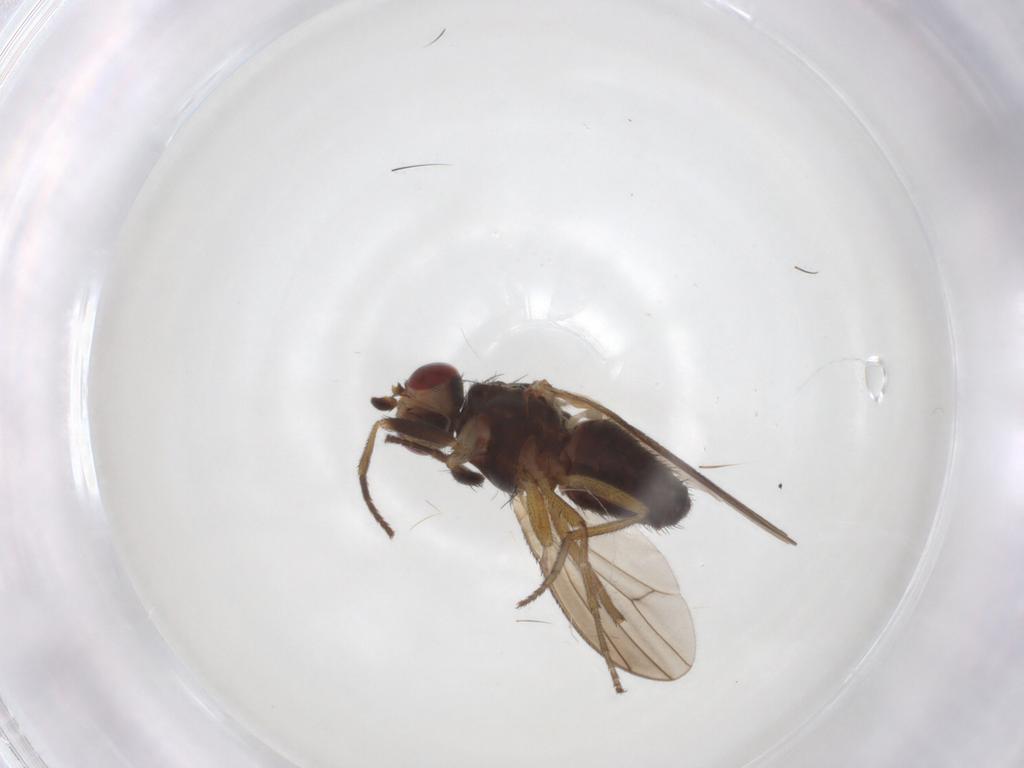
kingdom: Animalia
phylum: Arthropoda
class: Insecta
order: Diptera
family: Heleomyzidae
